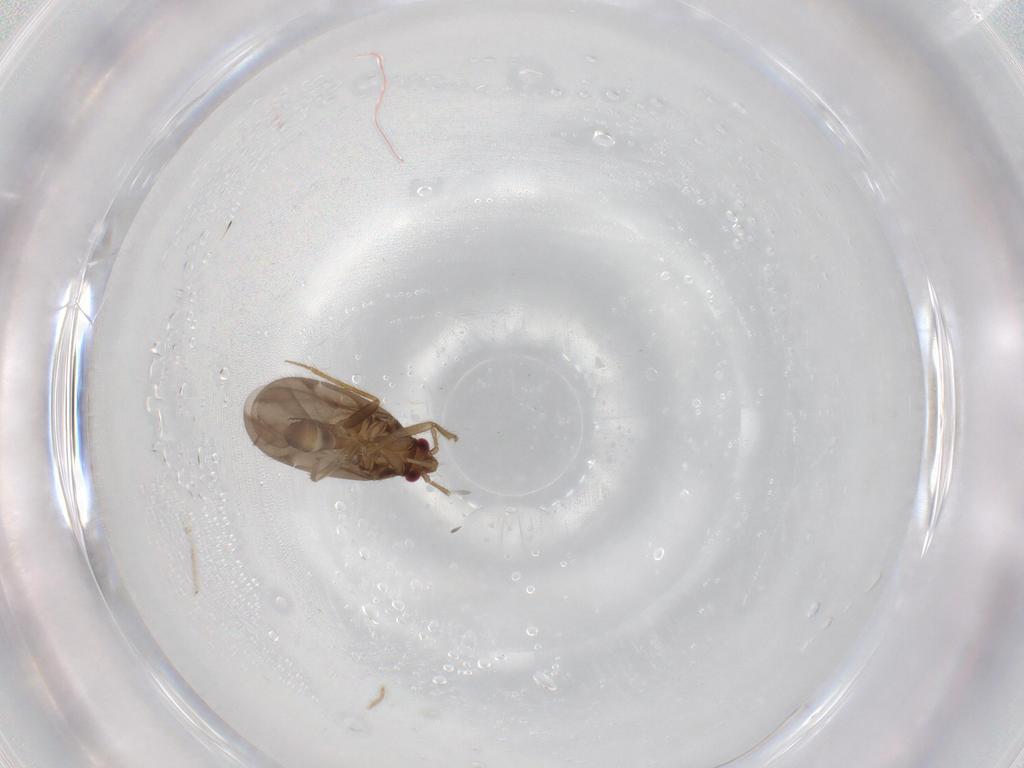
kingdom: Animalia
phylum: Arthropoda
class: Insecta
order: Hemiptera
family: Ceratocombidae
